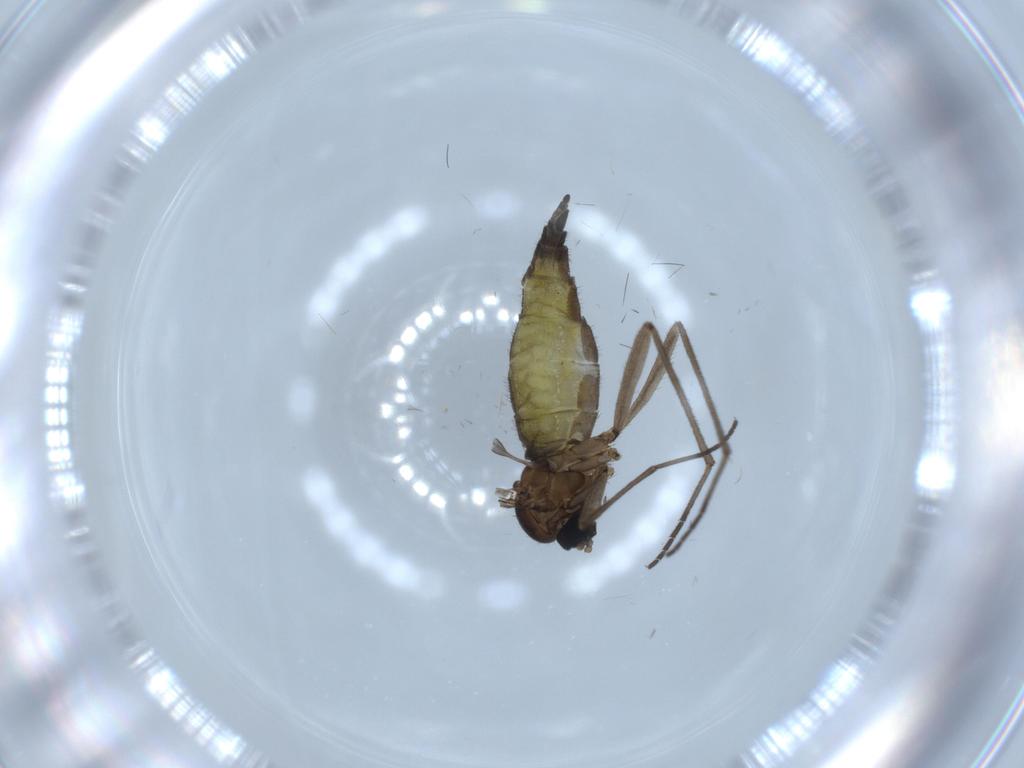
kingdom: Animalia
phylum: Arthropoda
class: Insecta
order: Diptera
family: Sciaridae
